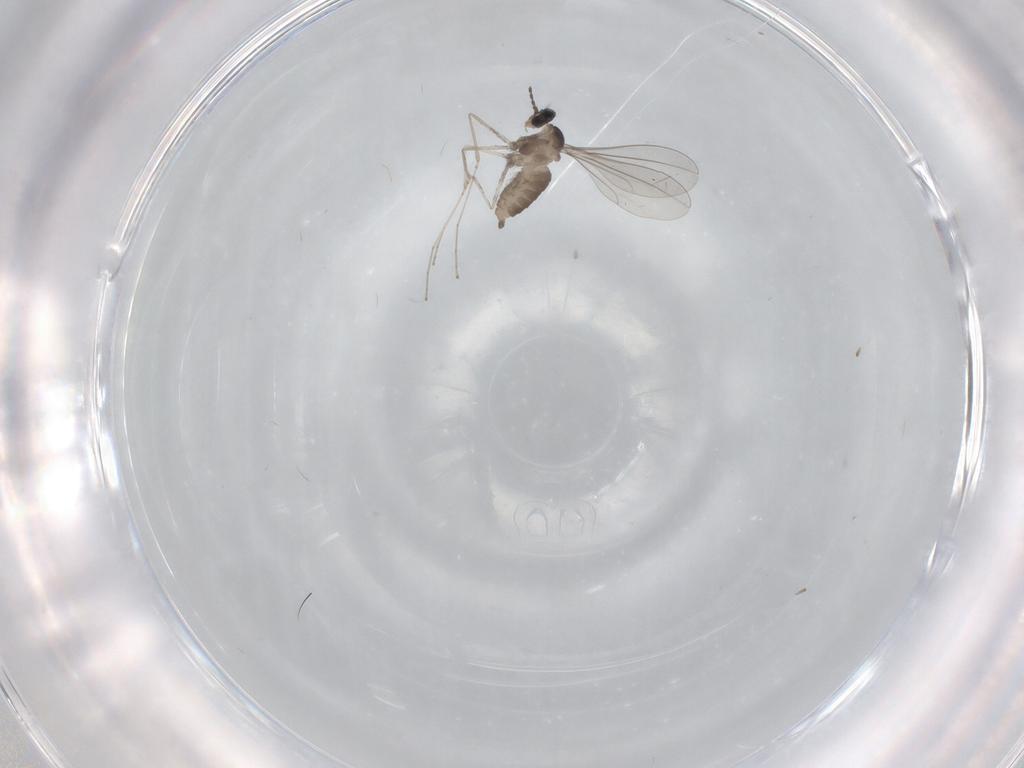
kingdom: Animalia
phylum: Arthropoda
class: Insecta
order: Diptera
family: Cecidomyiidae
